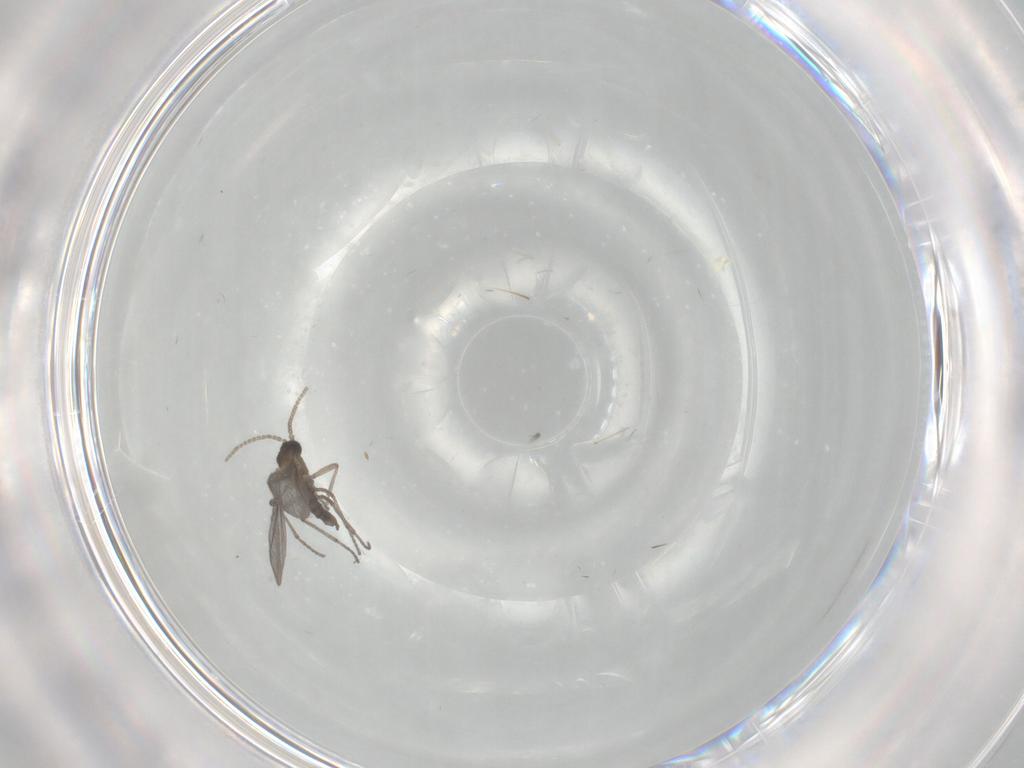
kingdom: Animalia
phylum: Arthropoda
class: Insecta
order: Diptera
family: Sciaridae
